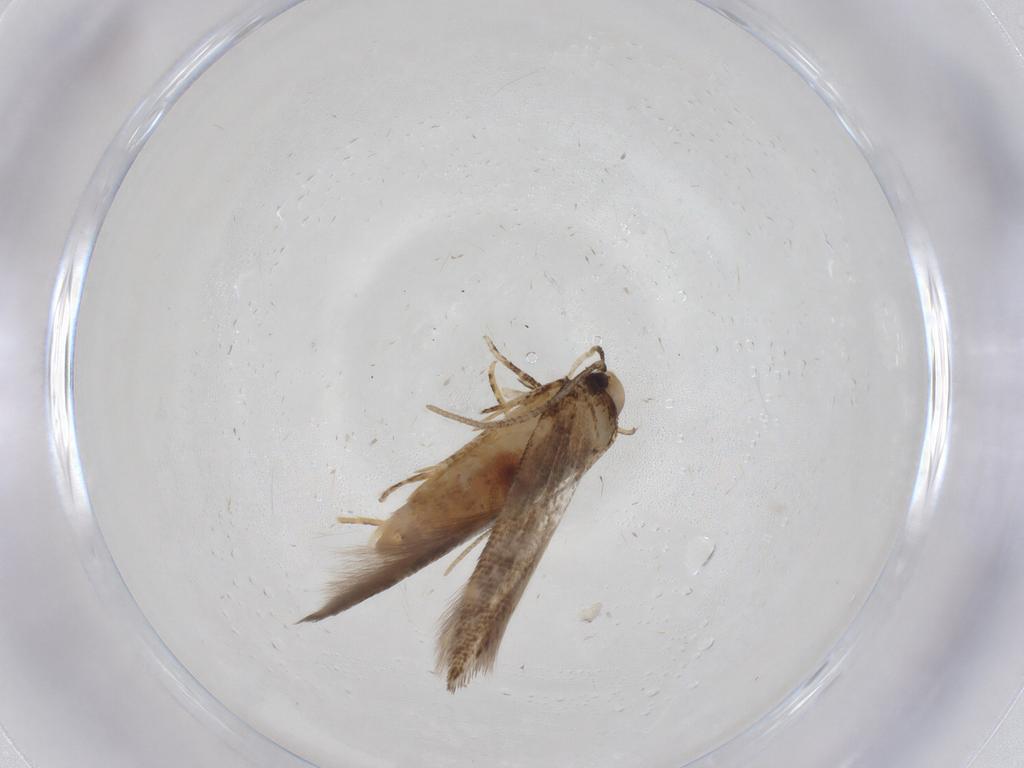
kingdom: Animalia
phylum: Arthropoda
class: Insecta
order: Lepidoptera
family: Cosmopterigidae
